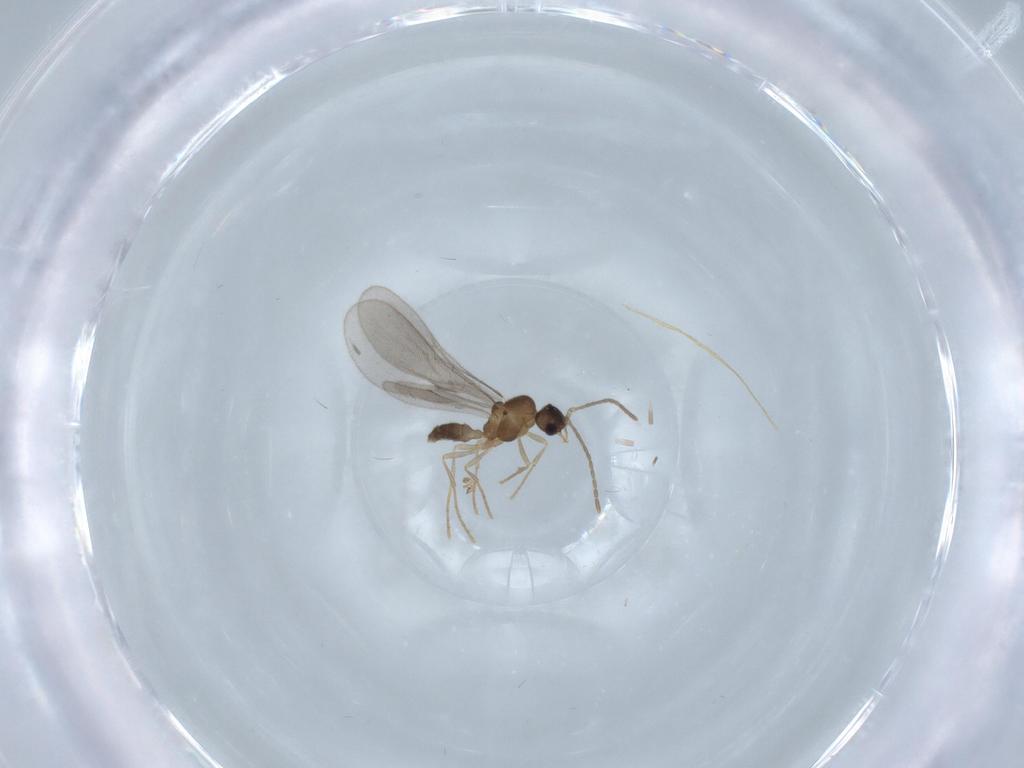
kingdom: Animalia
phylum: Arthropoda
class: Insecta
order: Hymenoptera
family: Formicidae
